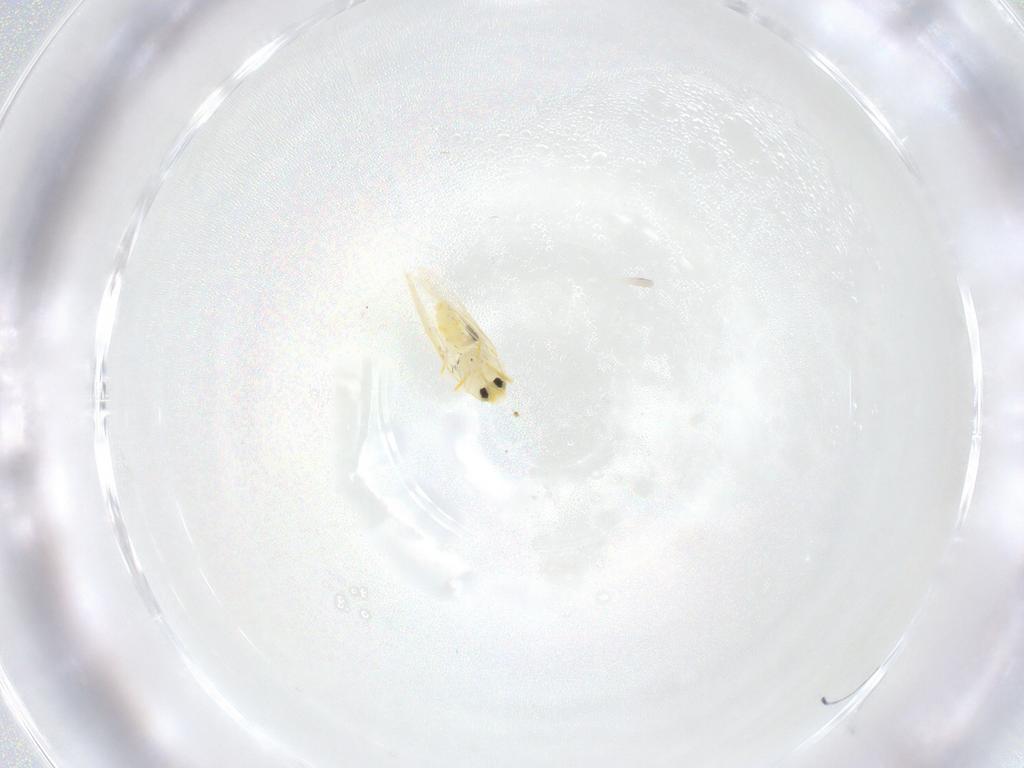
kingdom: Animalia
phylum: Arthropoda
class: Insecta
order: Hemiptera
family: Aleyrodidae
